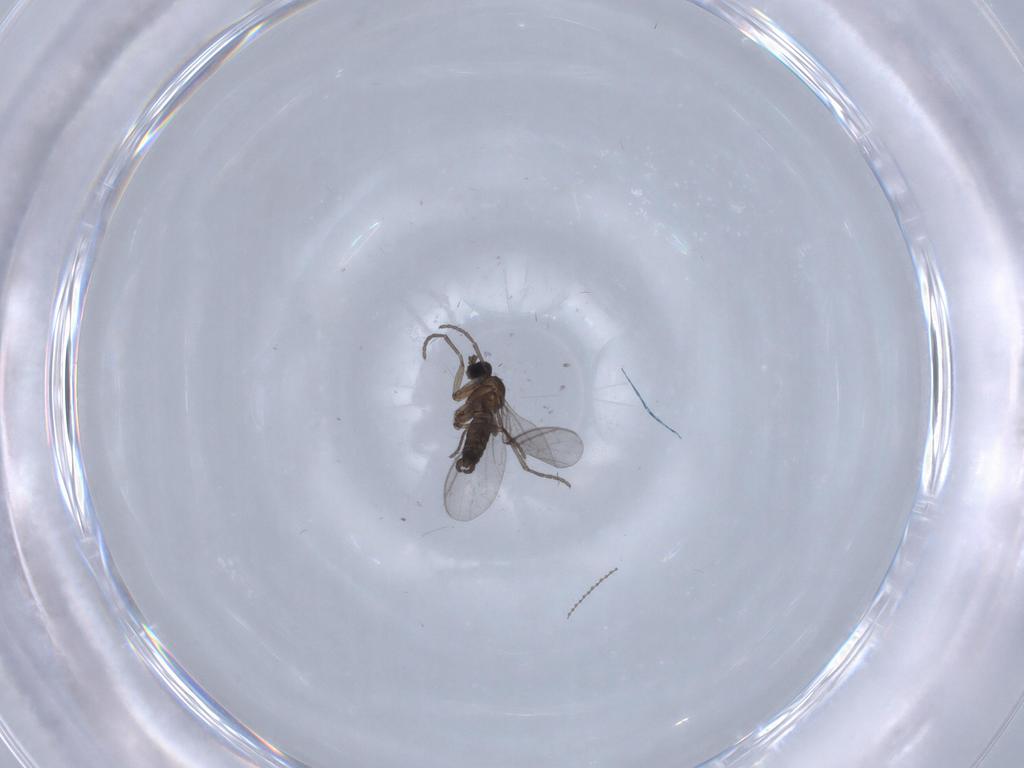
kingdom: Animalia
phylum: Arthropoda
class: Insecta
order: Diptera
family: Cecidomyiidae
